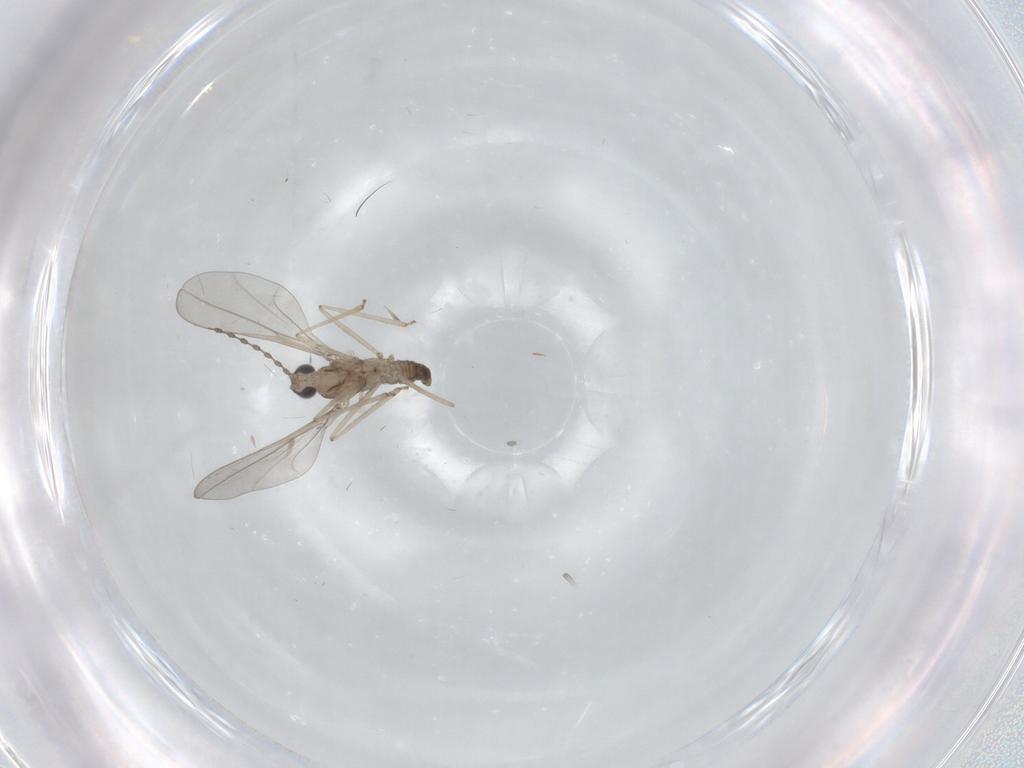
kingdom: Animalia
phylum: Arthropoda
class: Insecta
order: Diptera
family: Cecidomyiidae
